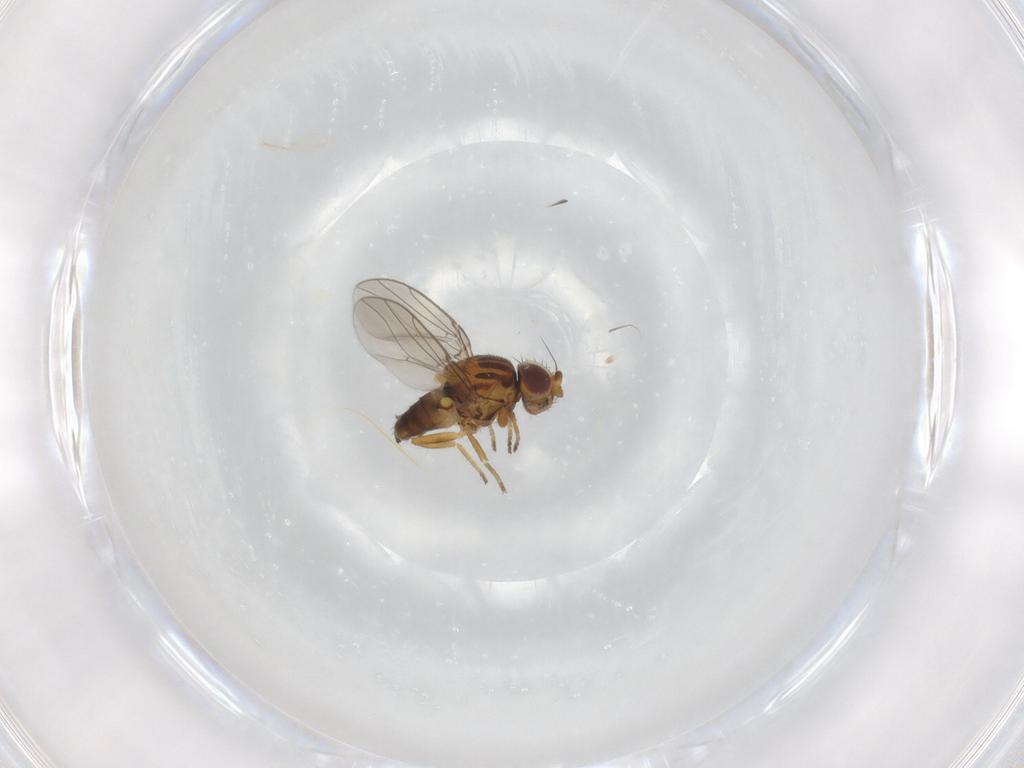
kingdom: Animalia
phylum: Arthropoda
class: Insecta
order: Diptera
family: Chloropidae
